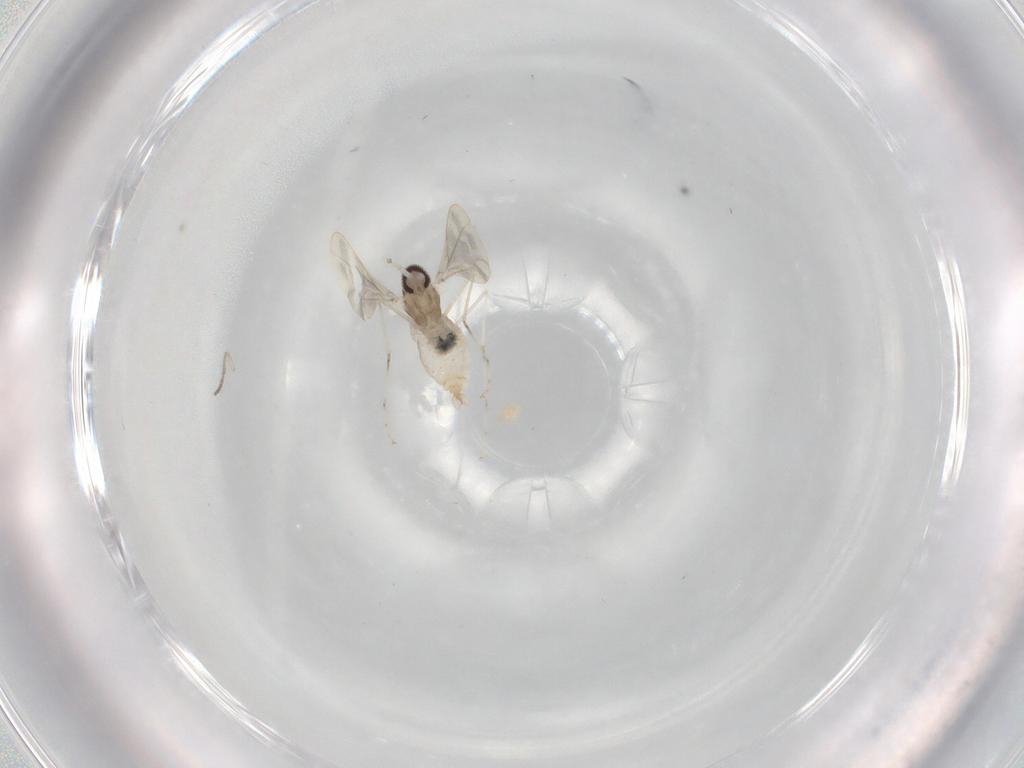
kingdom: Animalia
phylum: Arthropoda
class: Insecta
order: Diptera
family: Cecidomyiidae
